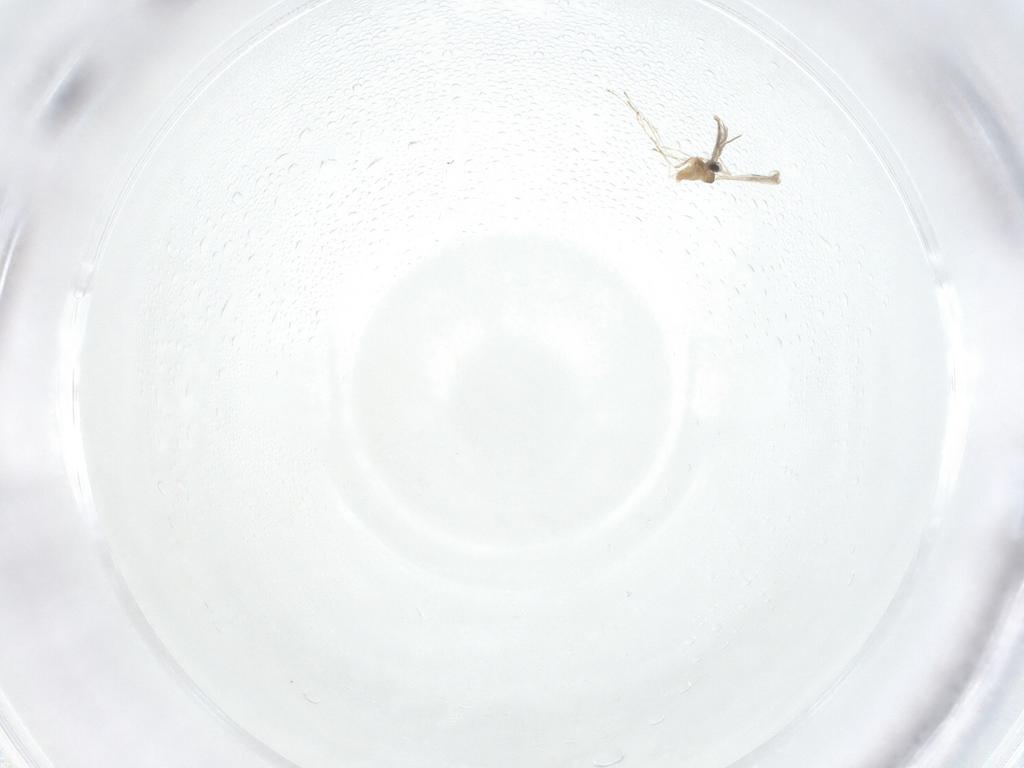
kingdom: Animalia
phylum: Arthropoda
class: Insecta
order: Diptera
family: Cecidomyiidae
